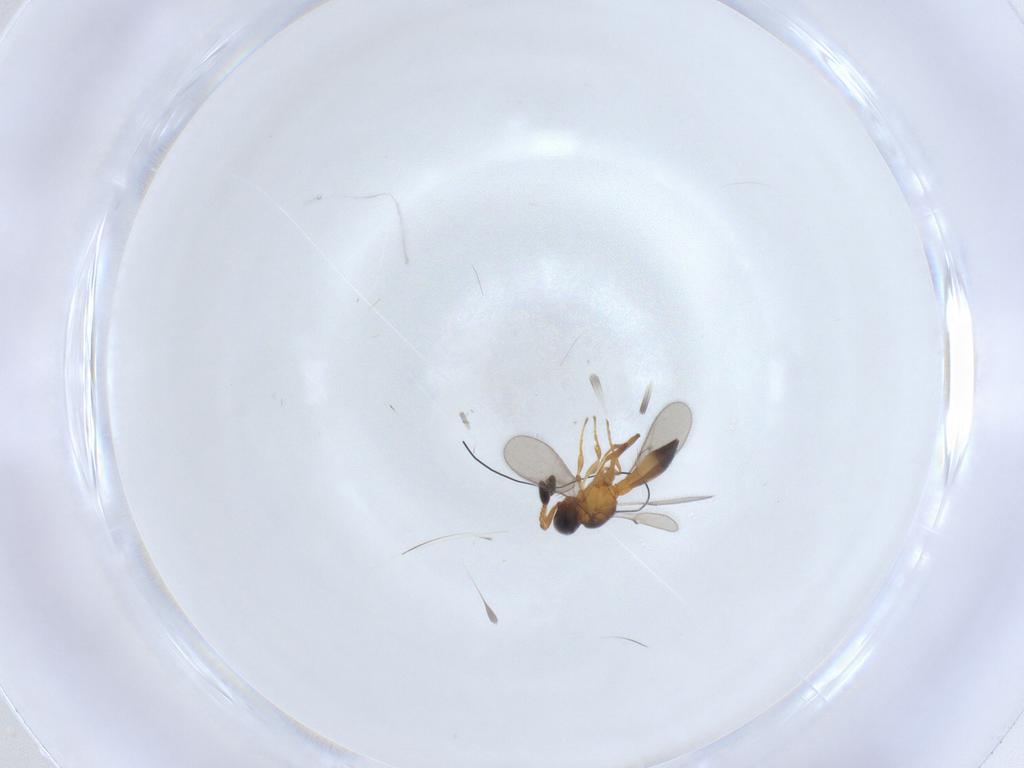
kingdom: Animalia
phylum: Arthropoda
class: Insecta
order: Hymenoptera
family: Scelionidae
